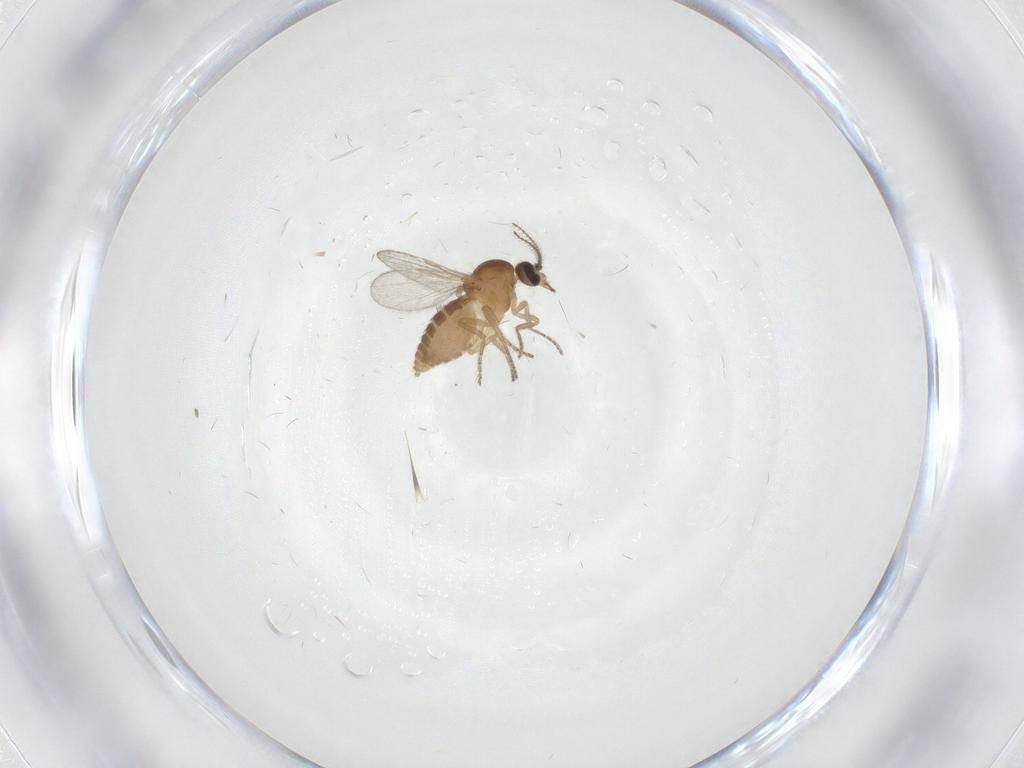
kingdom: Animalia
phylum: Arthropoda
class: Insecta
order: Diptera
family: Ceratopogonidae
